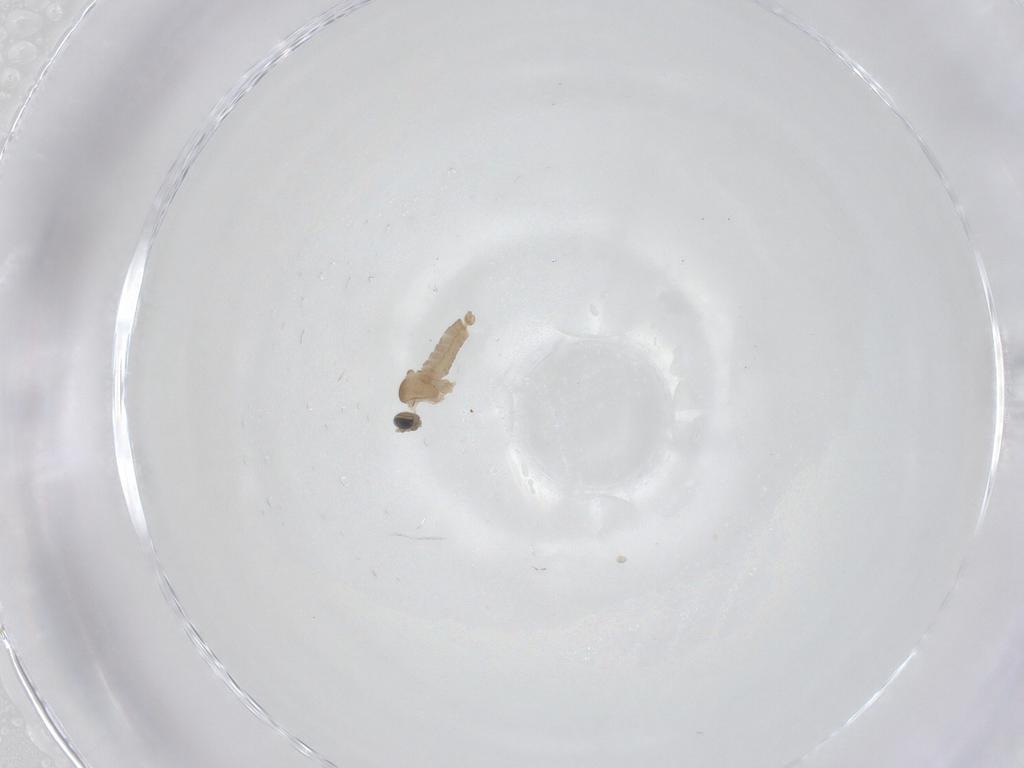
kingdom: Animalia
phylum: Arthropoda
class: Insecta
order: Diptera
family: Cecidomyiidae
